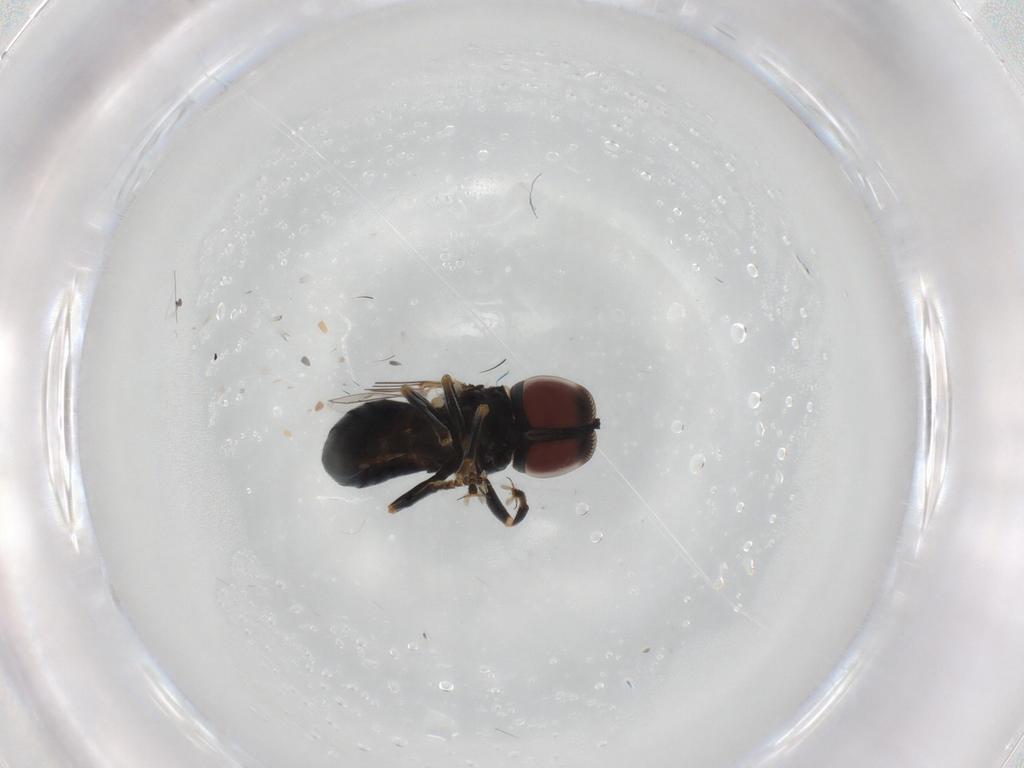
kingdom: Animalia
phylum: Arthropoda
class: Insecta
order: Diptera
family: Pipunculidae
